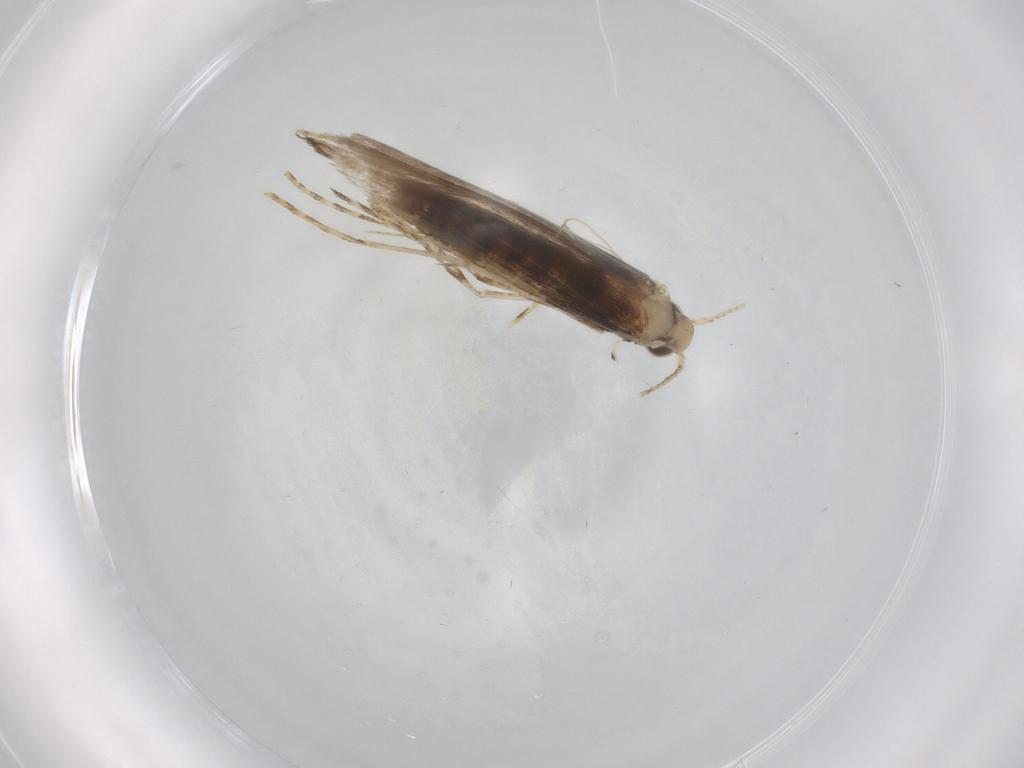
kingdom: Animalia
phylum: Arthropoda
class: Insecta
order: Lepidoptera
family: Gracillariidae
